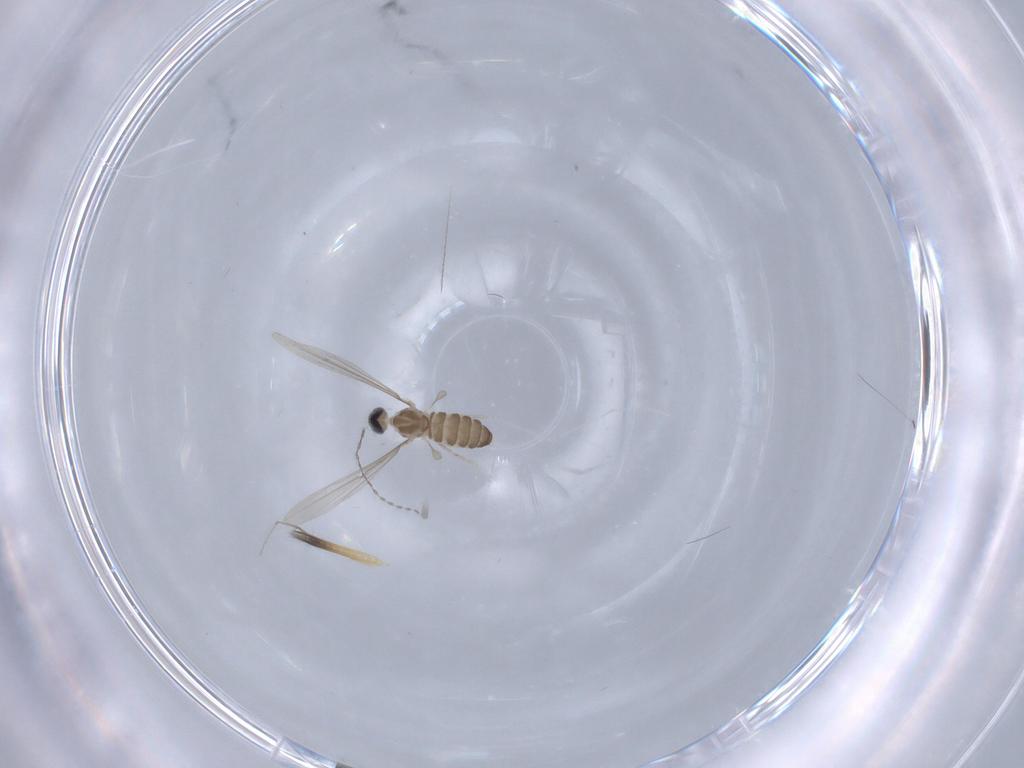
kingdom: Animalia
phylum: Arthropoda
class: Insecta
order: Diptera
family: Cecidomyiidae
